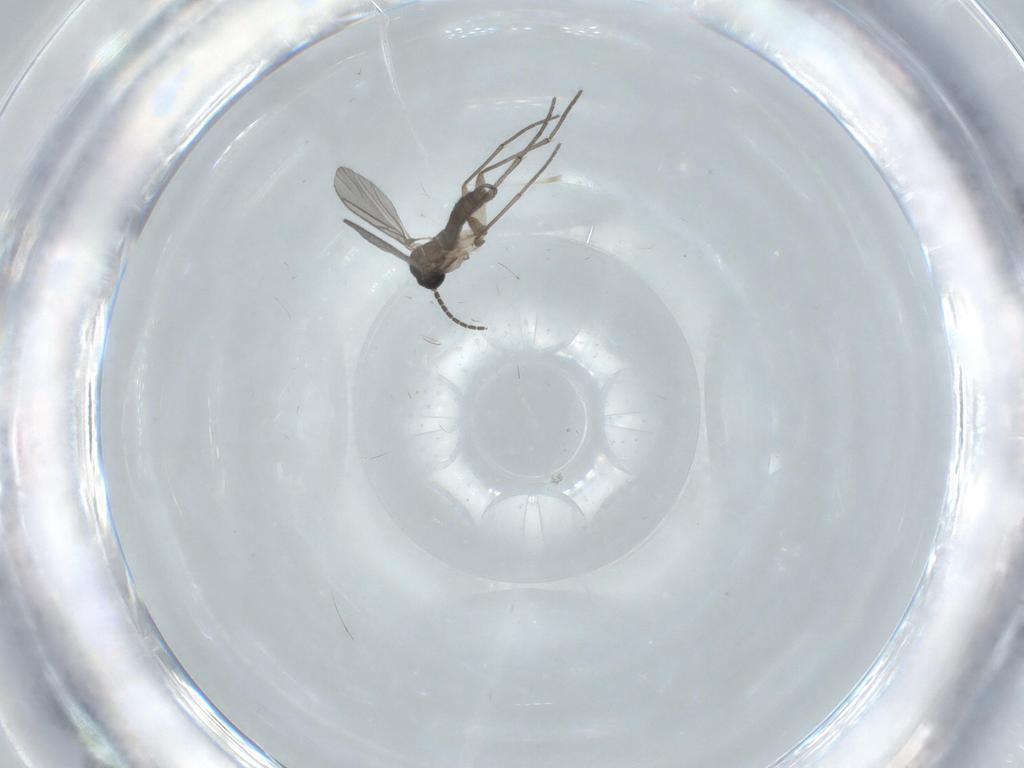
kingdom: Animalia
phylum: Arthropoda
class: Insecta
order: Diptera
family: Sciaridae
